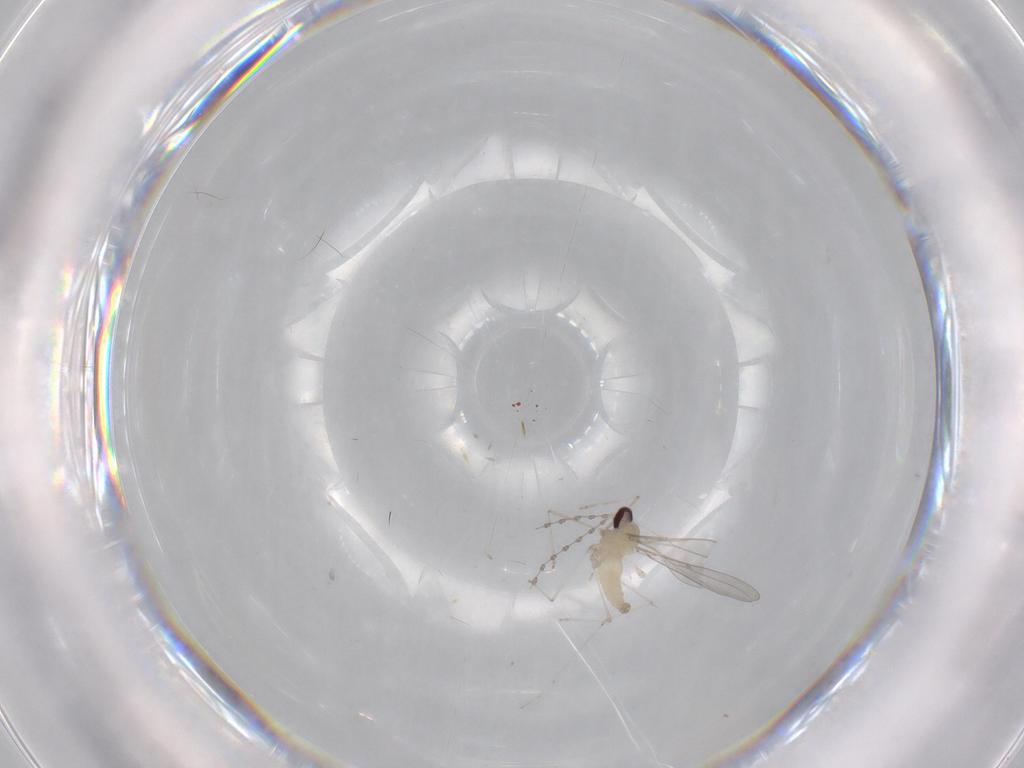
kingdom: Animalia
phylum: Arthropoda
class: Insecta
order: Diptera
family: Cecidomyiidae
